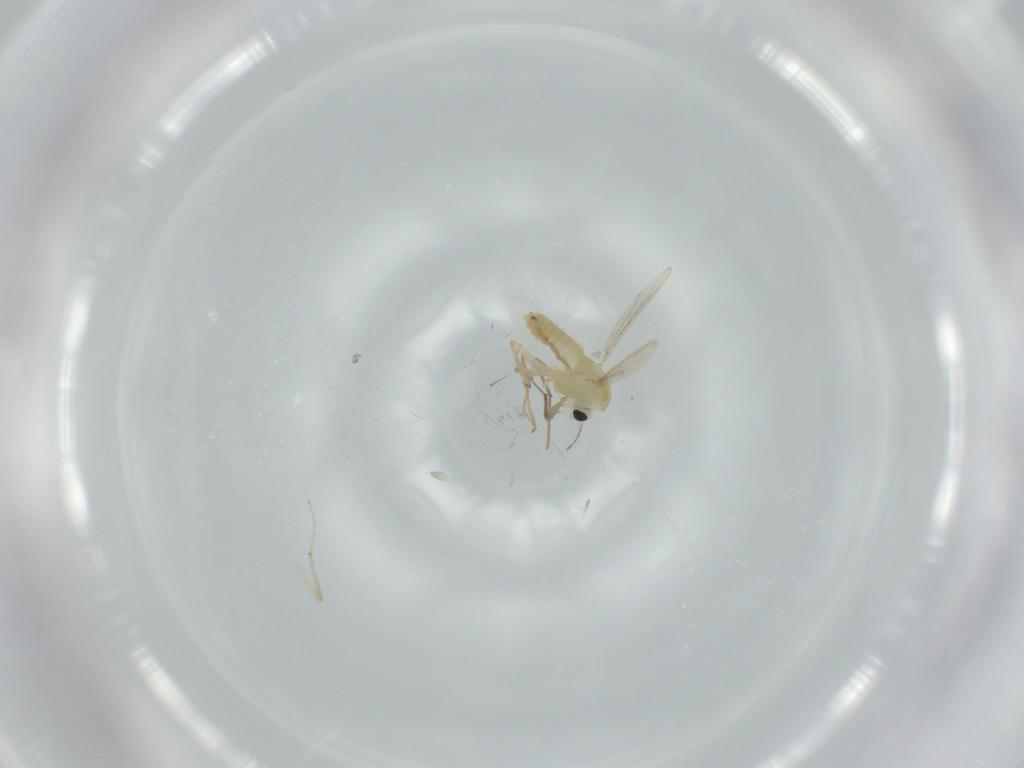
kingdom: Animalia
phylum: Arthropoda
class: Insecta
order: Diptera
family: Chironomidae
